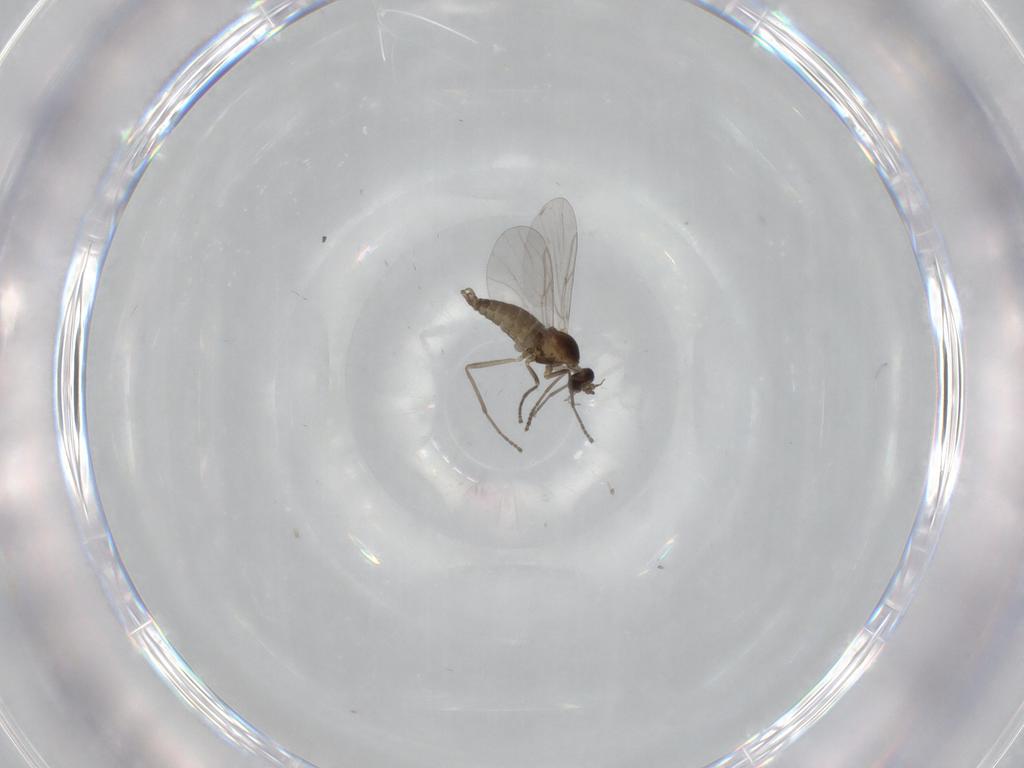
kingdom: Animalia
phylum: Arthropoda
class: Insecta
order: Diptera
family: Cecidomyiidae
